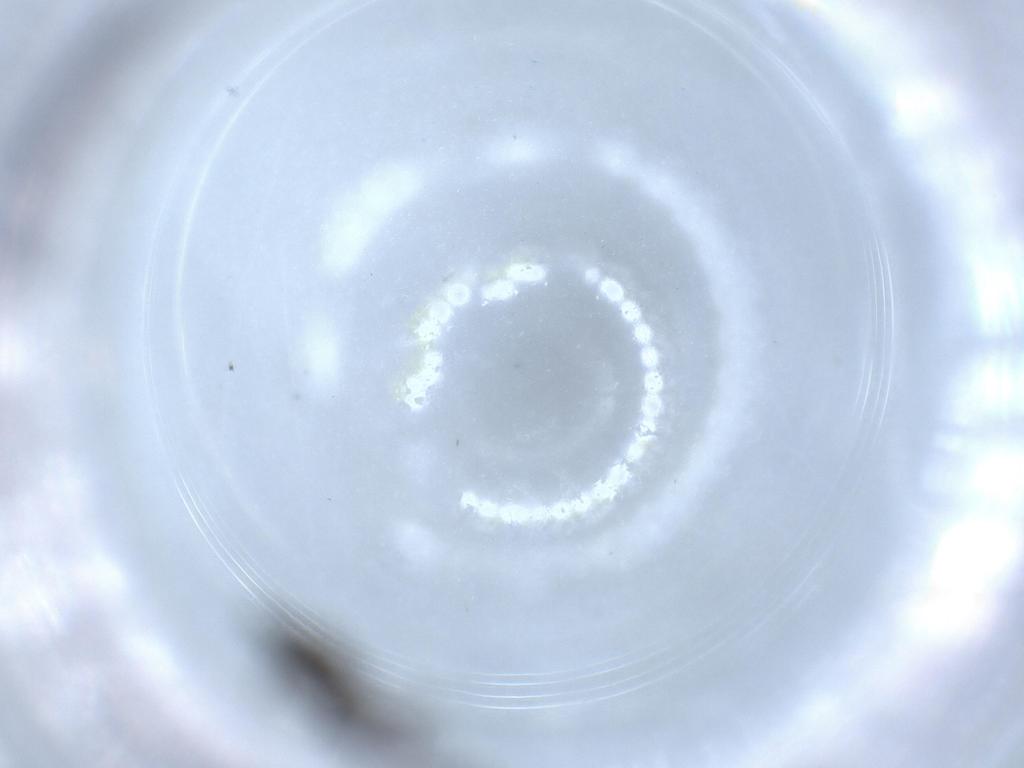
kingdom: Animalia
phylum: Arthropoda
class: Insecta
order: Diptera
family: Sciaridae
